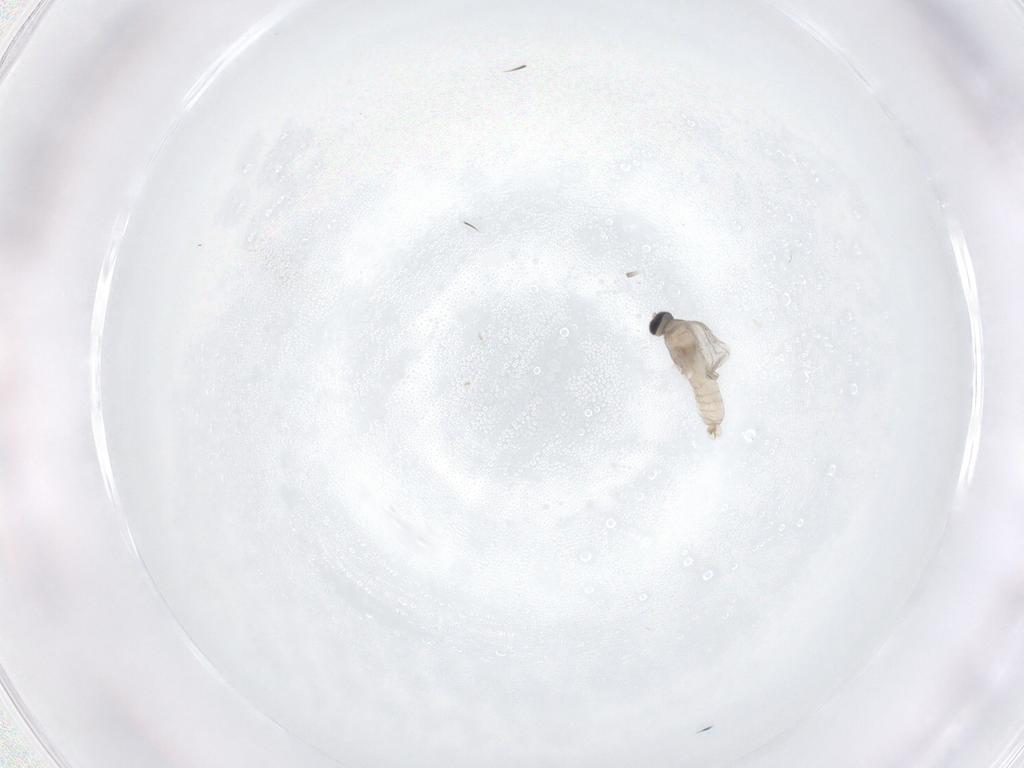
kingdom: Animalia
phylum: Arthropoda
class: Insecta
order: Diptera
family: Cecidomyiidae
